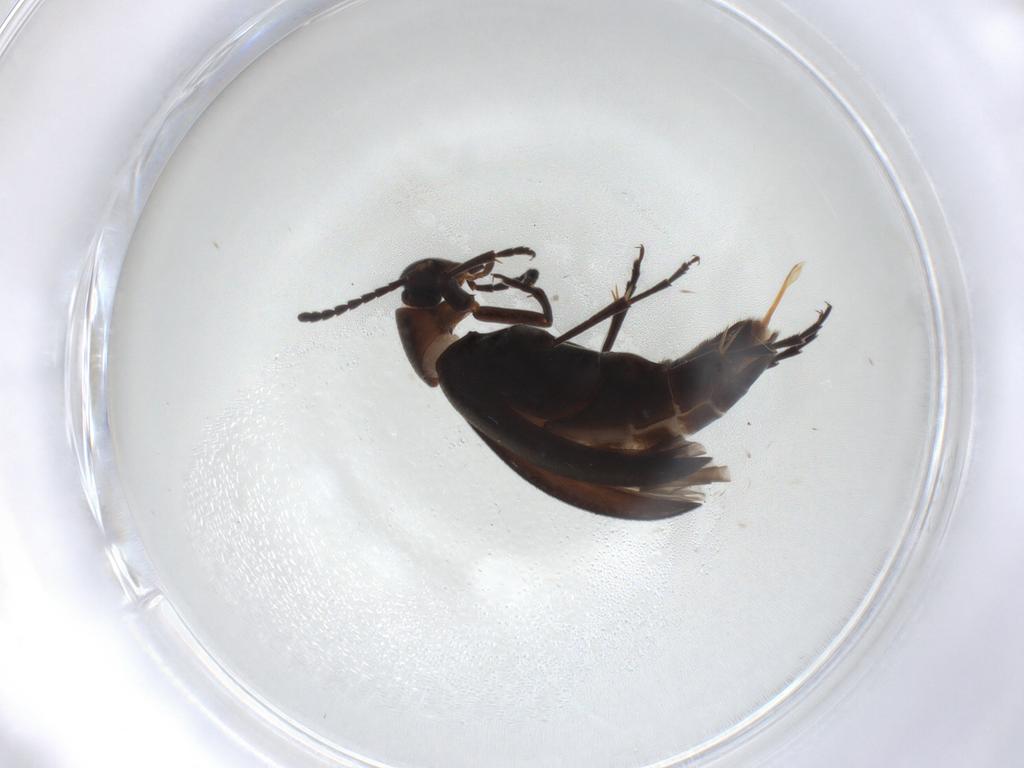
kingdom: Animalia
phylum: Arthropoda
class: Insecta
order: Coleoptera
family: Scraptiidae
